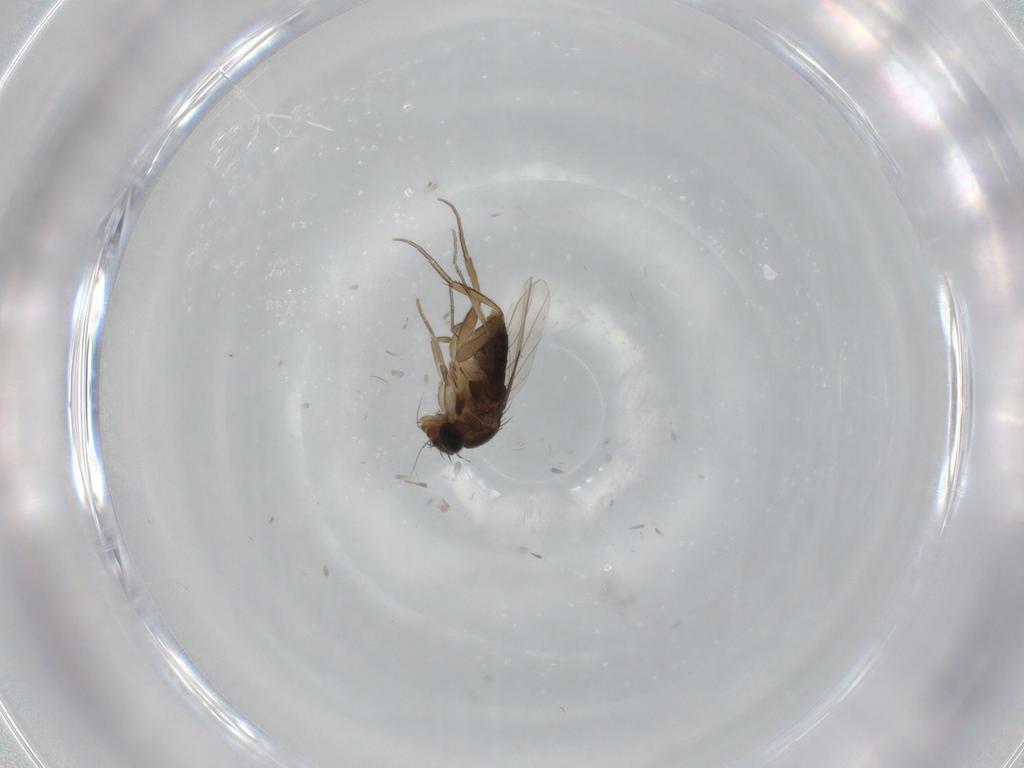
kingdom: Animalia
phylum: Arthropoda
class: Insecta
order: Diptera
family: Phoridae
